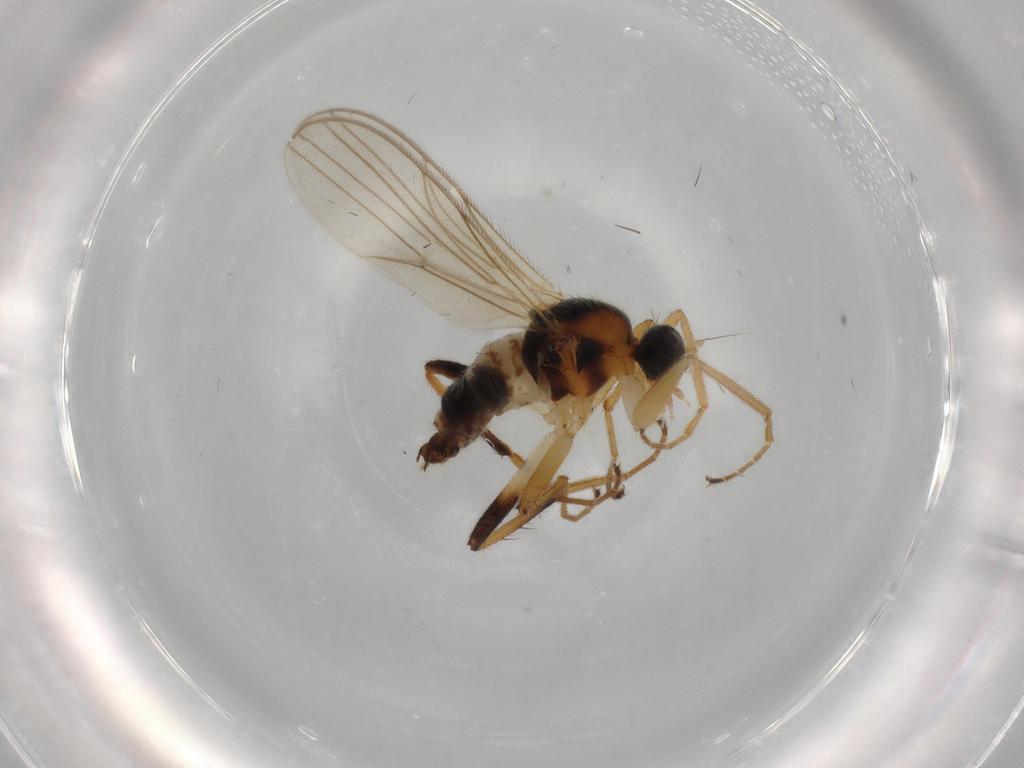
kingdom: Animalia
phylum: Arthropoda
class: Insecta
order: Diptera
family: Hybotidae
